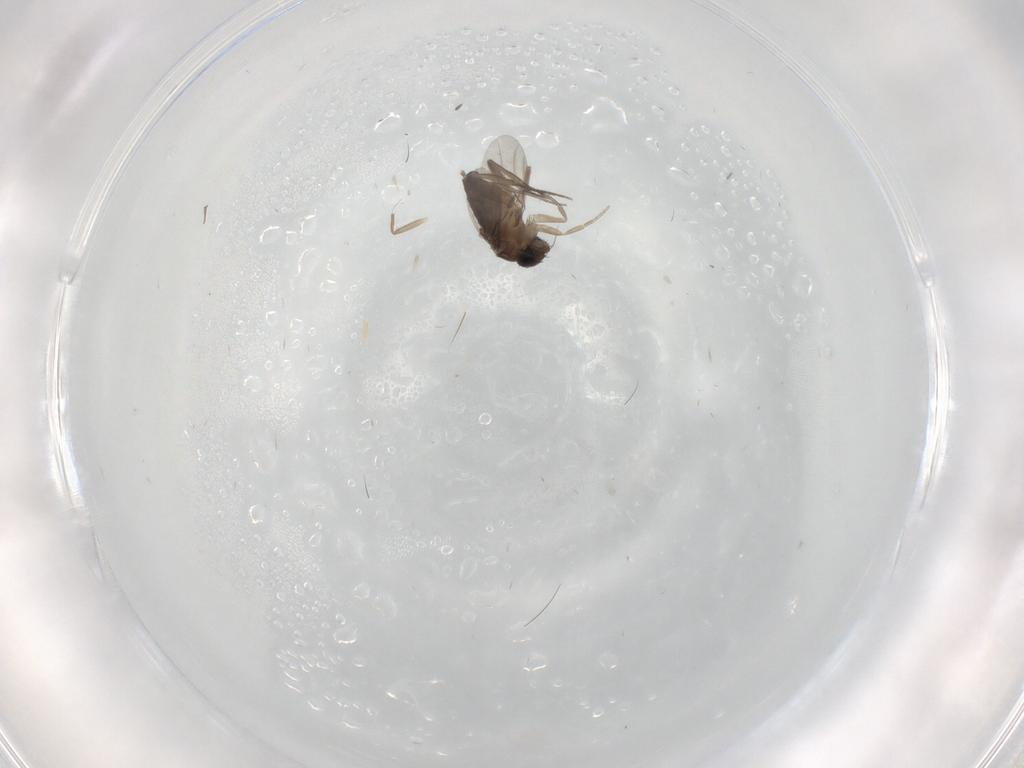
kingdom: Animalia
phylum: Arthropoda
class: Insecta
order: Diptera
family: Phoridae
